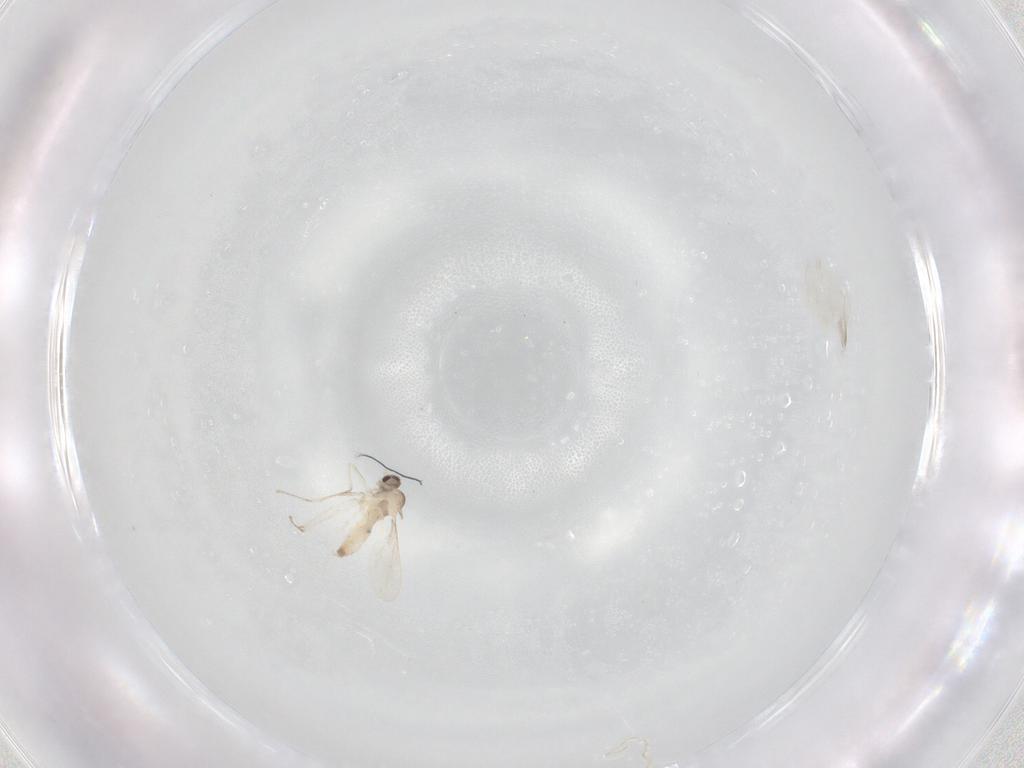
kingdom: Animalia
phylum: Arthropoda
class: Insecta
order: Diptera
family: Cecidomyiidae
